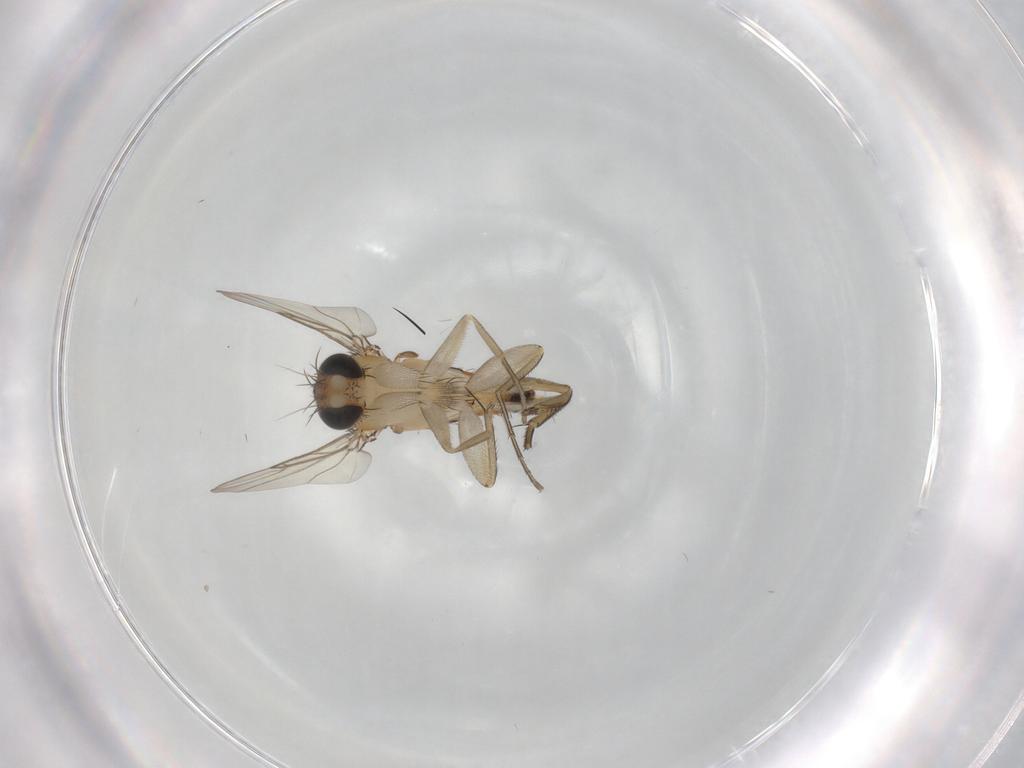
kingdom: Animalia
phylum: Arthropoda
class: Insecta
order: Diptera
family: Phoridae
